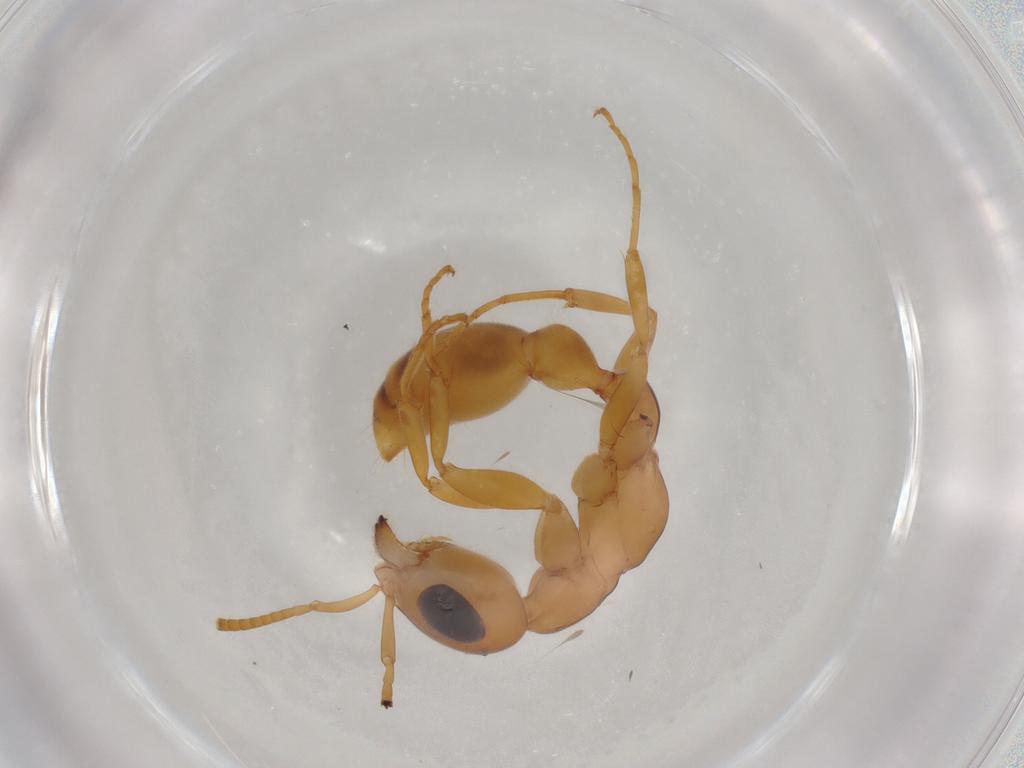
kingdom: Animalia
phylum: Arthropoda
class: Insecta
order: Hymenoptera
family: Formicidae
